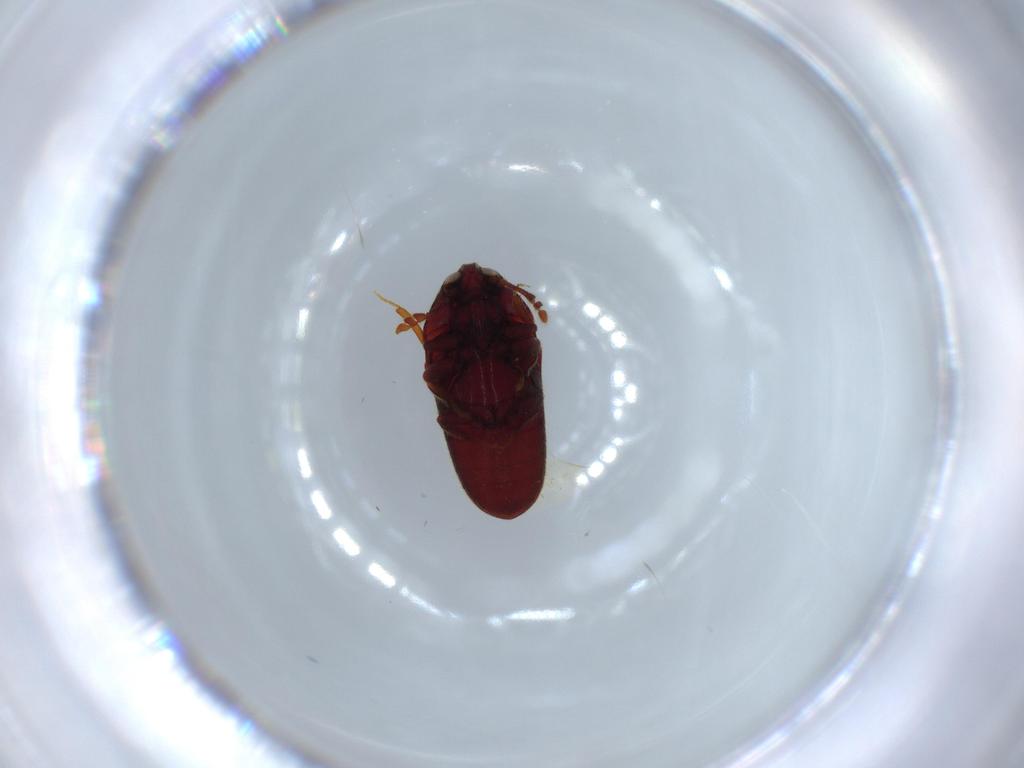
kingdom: Animalia
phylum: Arthropoda
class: Insecta
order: Coleoptera
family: Throscidae
